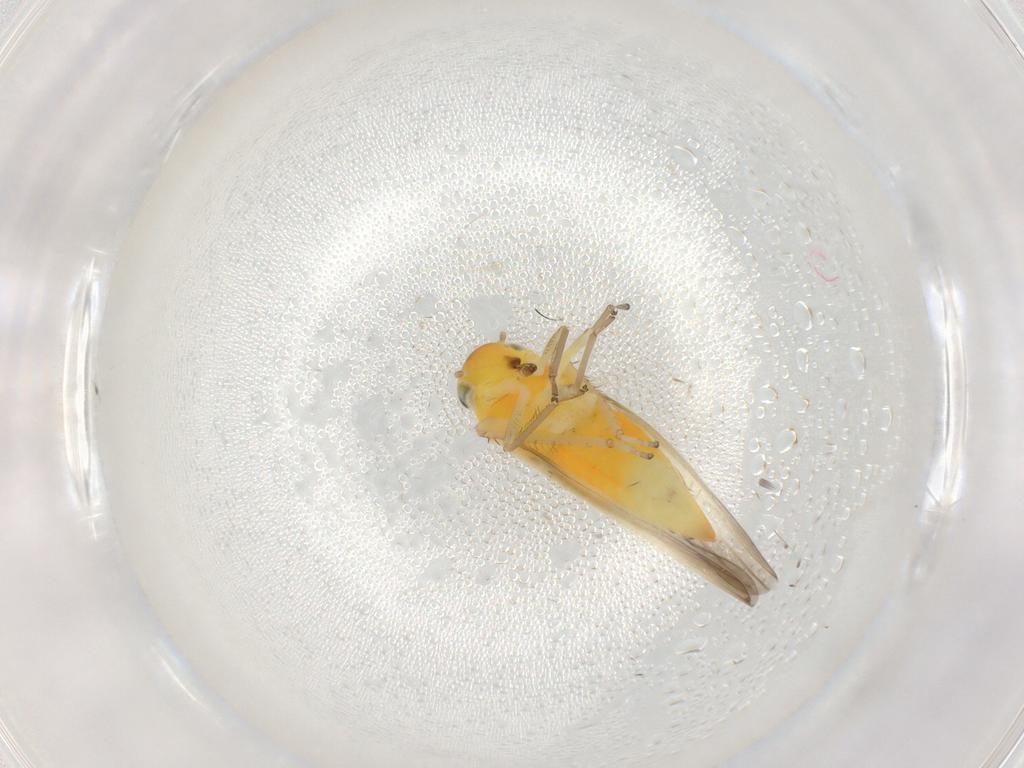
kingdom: Animalia
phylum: Arthropoda
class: Insecta
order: Hemiptera
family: Cicadellidae
